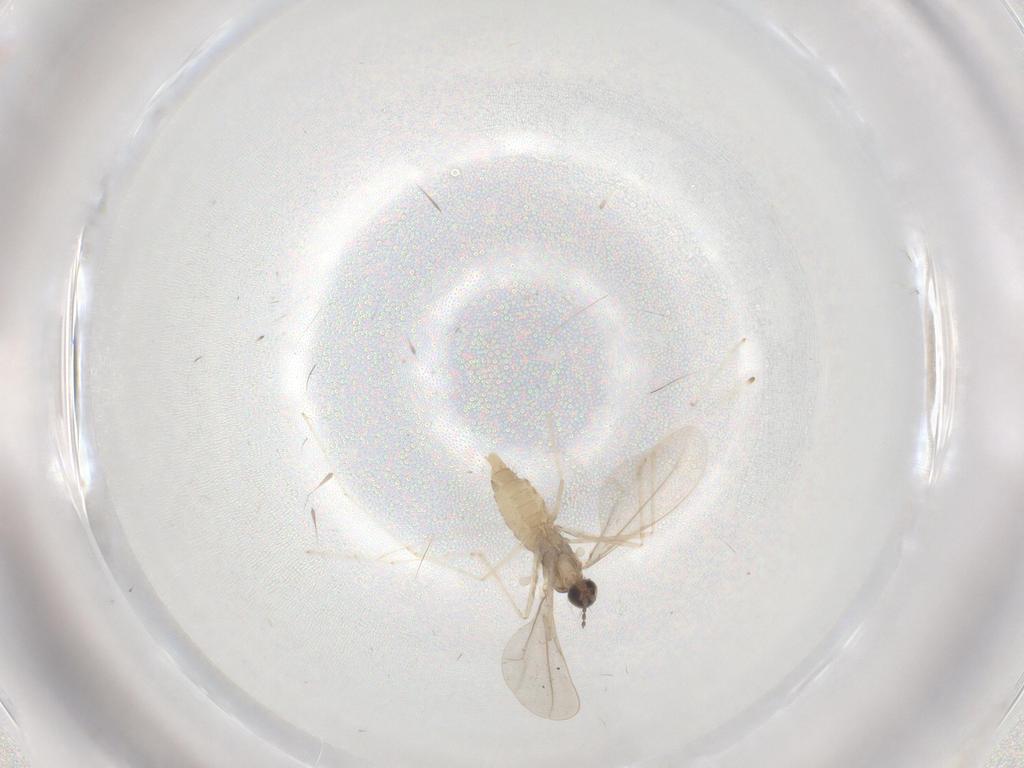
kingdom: Animalia
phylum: Arthropoda
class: Insecta
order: Diptera
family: Cecidomyiidae
